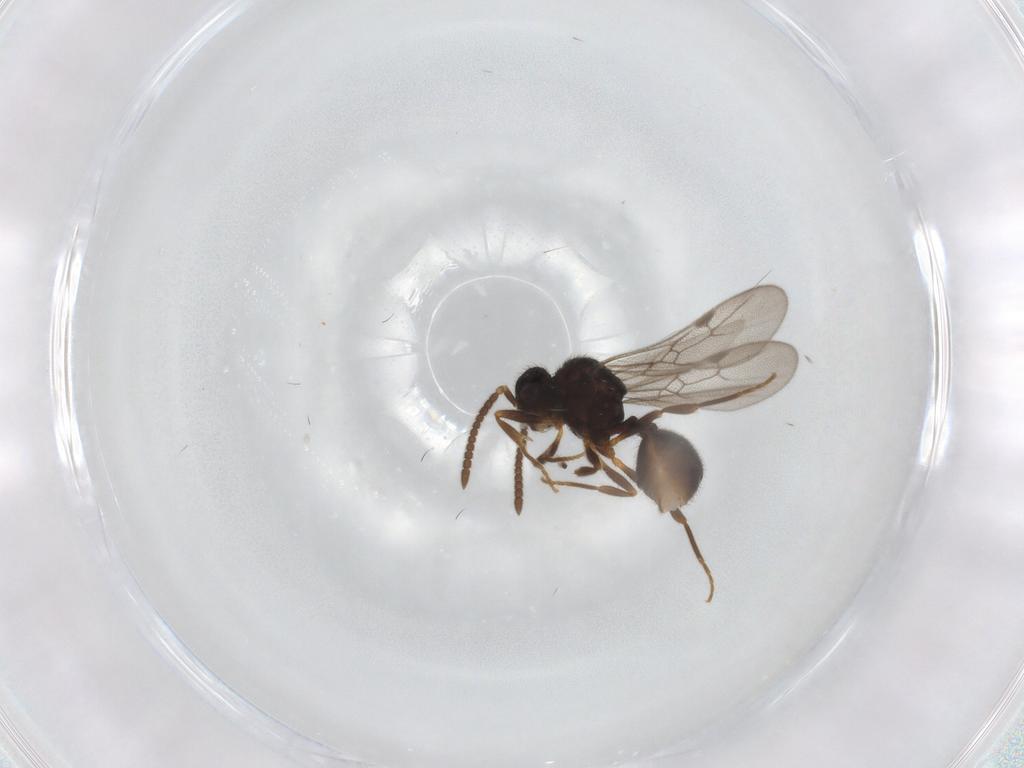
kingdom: Animalia
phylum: Arthropoda
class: Insecta
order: Hymenoptera
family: Formicidae
